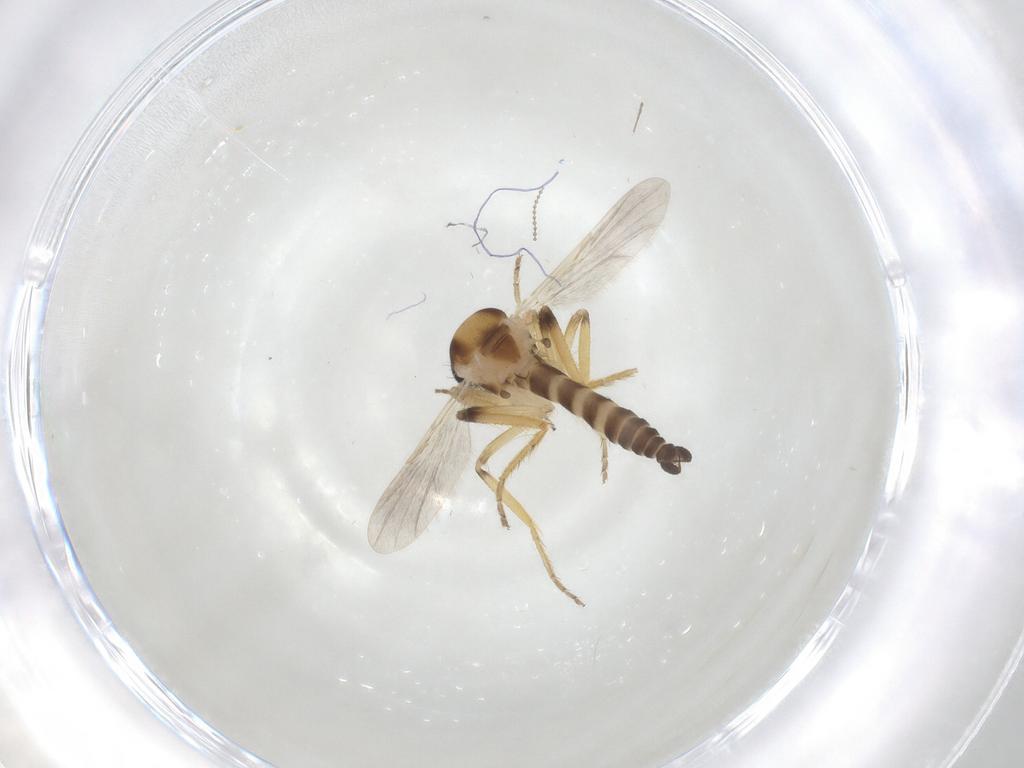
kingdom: Animalia
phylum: Arthropoda
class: Insecta
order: Diptera
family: Ceratopogonidae
